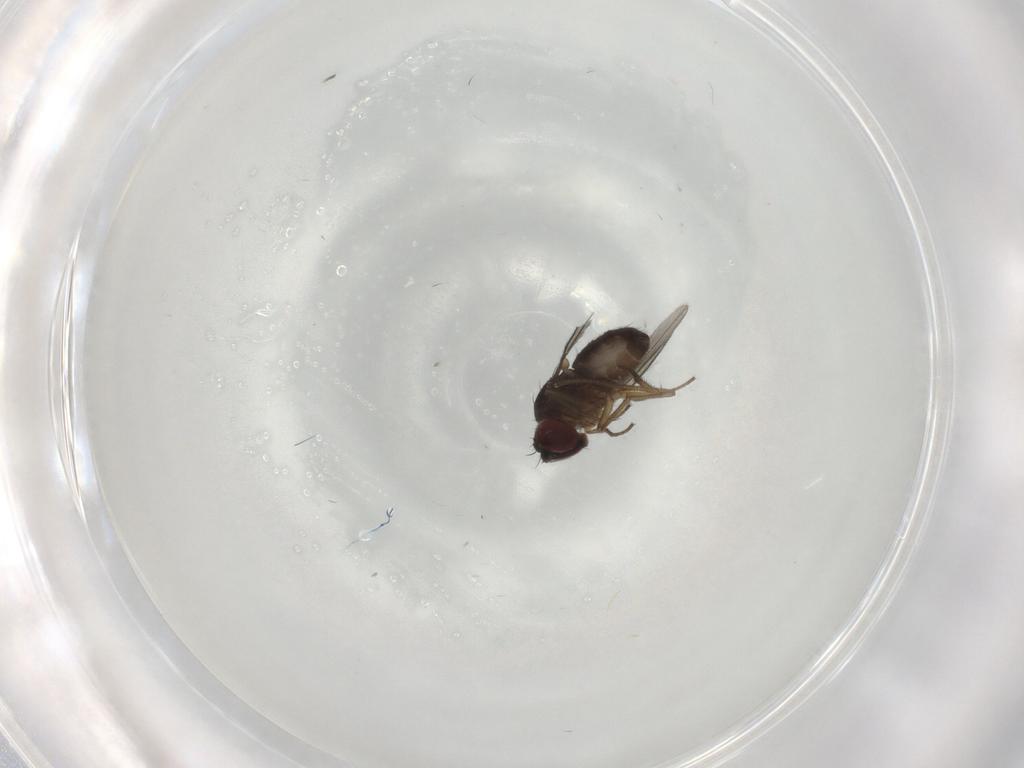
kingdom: Animalia
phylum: Arthropoda
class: Insecta
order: Diptera
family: Dolichopodidae
